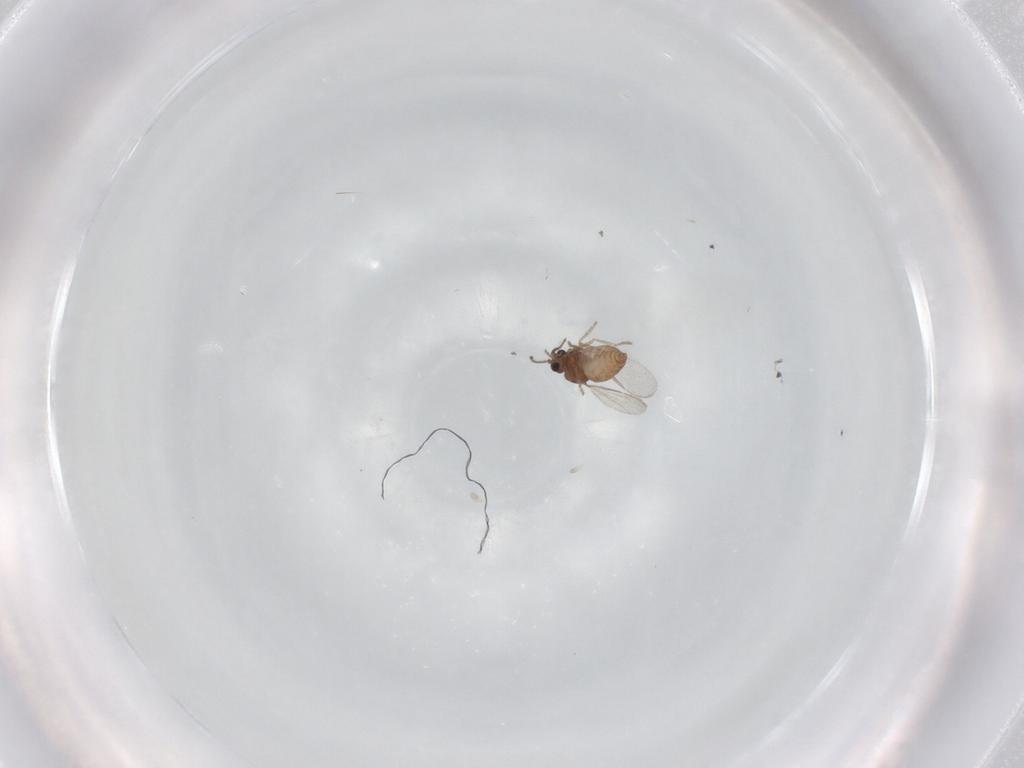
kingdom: Animalia
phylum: Arthropoda
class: Insecta
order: Diptera
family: Ceratopogonidae
